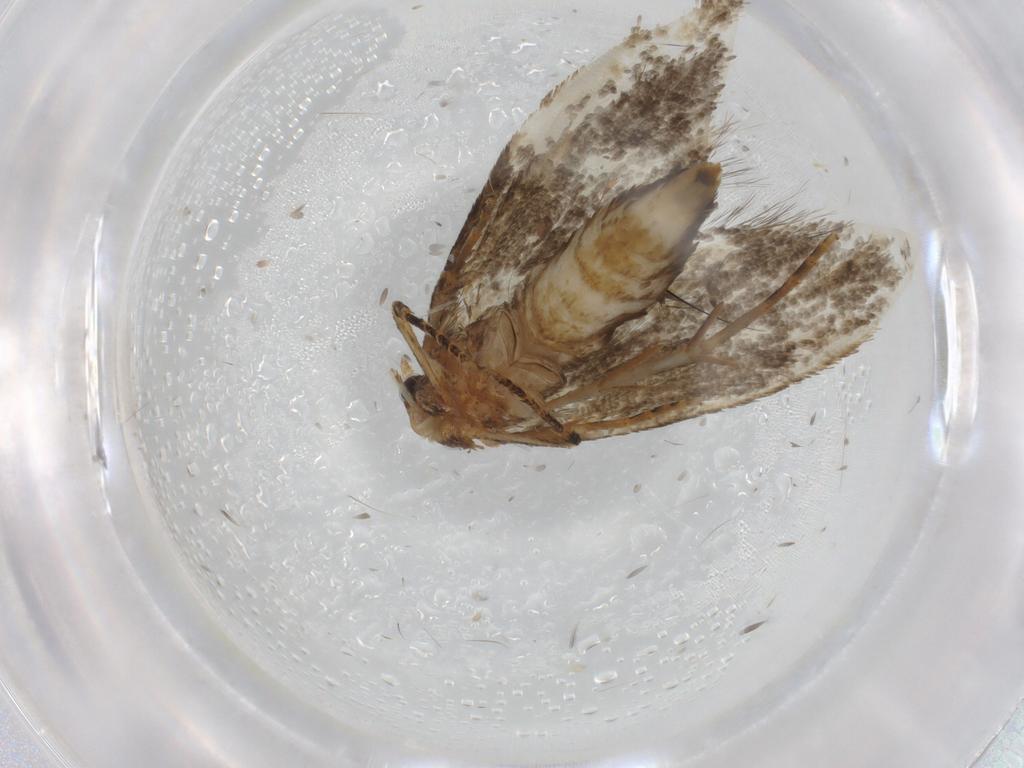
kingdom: Animalia
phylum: Arthropoda
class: Insecta
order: Lepidoptera
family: Crambidae
